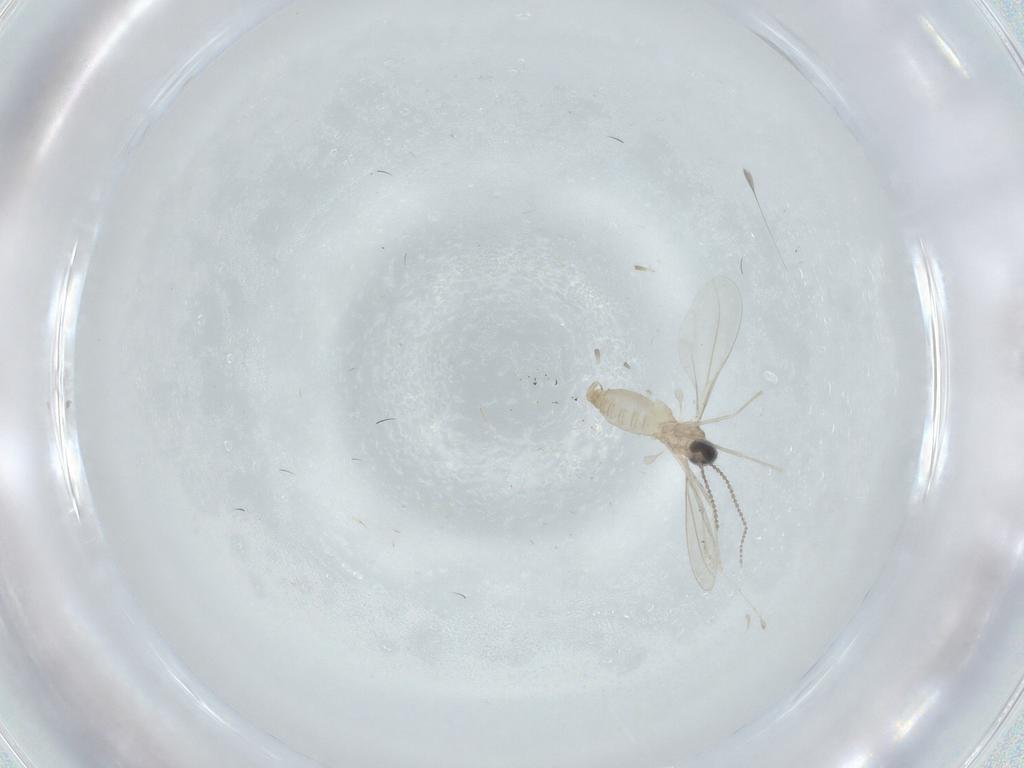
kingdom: Animalia
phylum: Arthropoda
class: Insecta
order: Diptera
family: Cecidomyiidae
